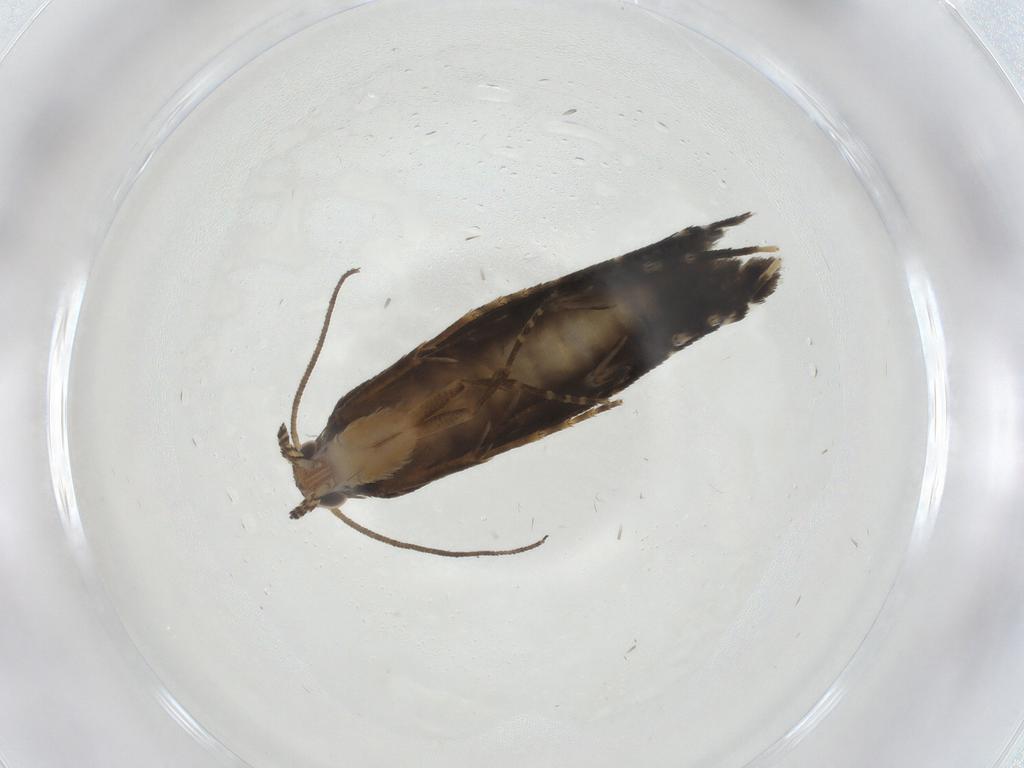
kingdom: Animalia
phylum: Arthropoda
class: Insecta
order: Lepidoptera
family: Glyphipterigidae
